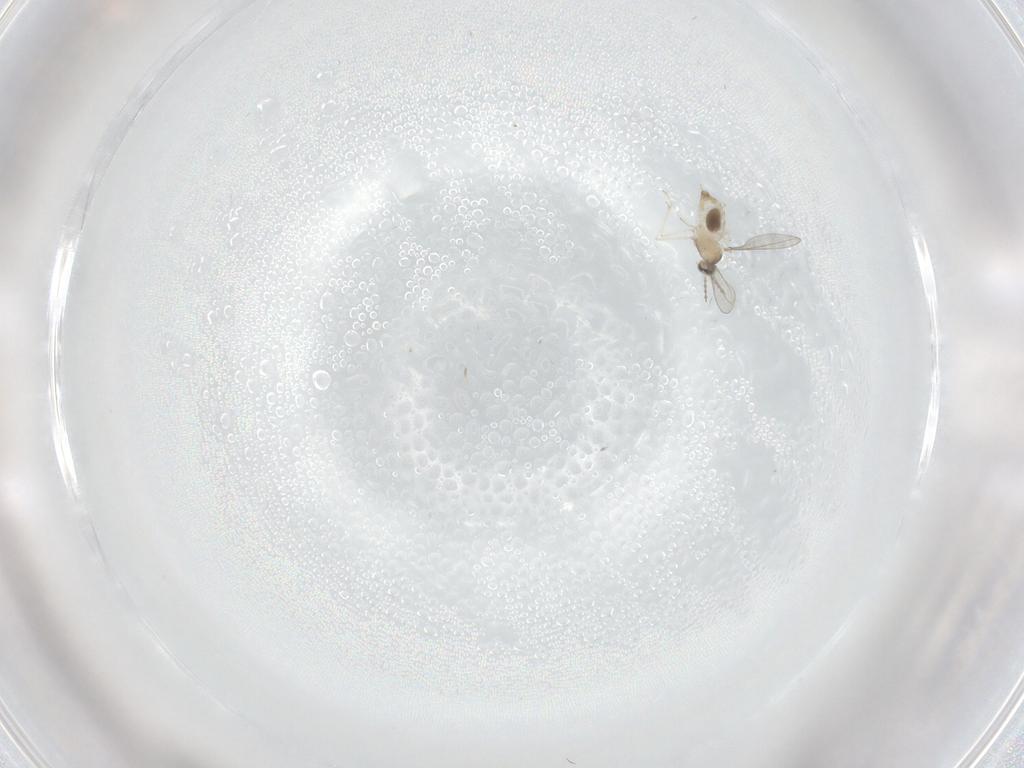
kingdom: Animalia
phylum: Arthropoda
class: Insecta
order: Diptera
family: Cecidomyiidae
